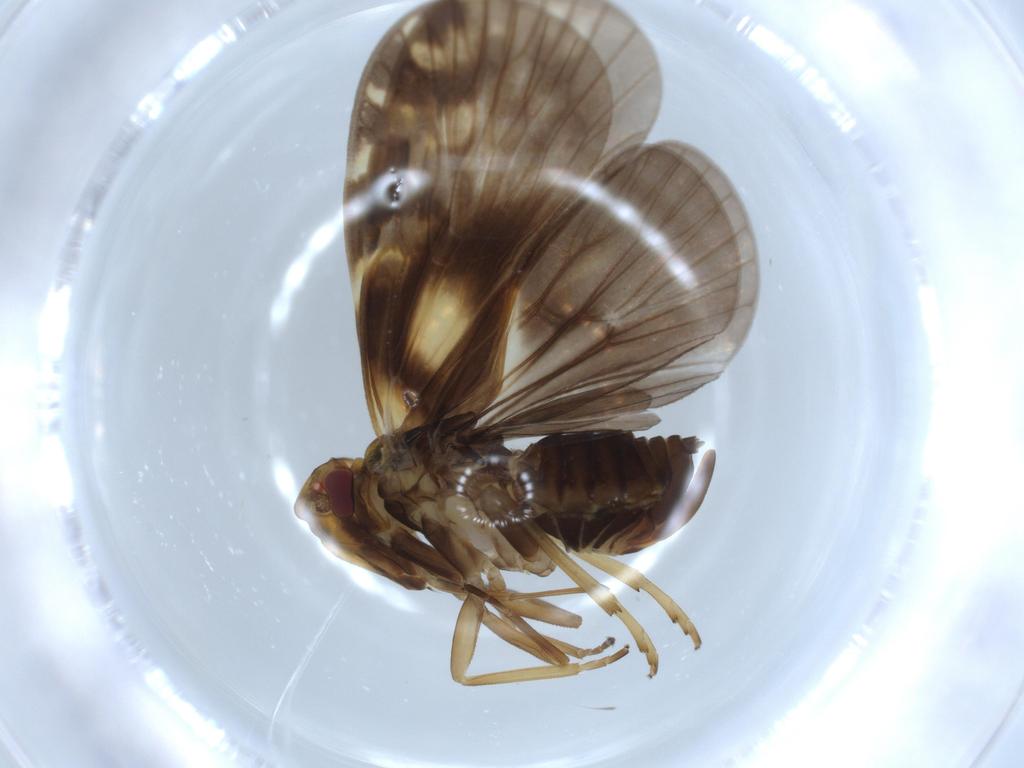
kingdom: Animalia
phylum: Arthropoda
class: Insecta
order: Hemiptera
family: Cixiidae
